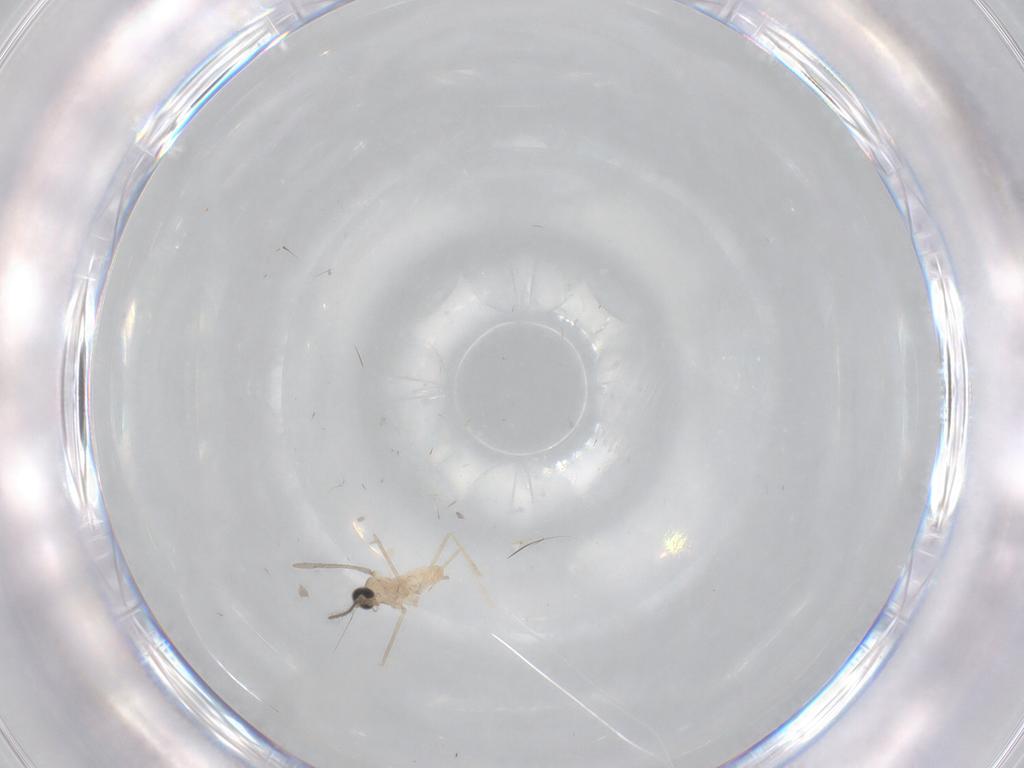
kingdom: Animalia
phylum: Arthropoda
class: Insecta
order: Diptera
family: Cecidomyiidae
